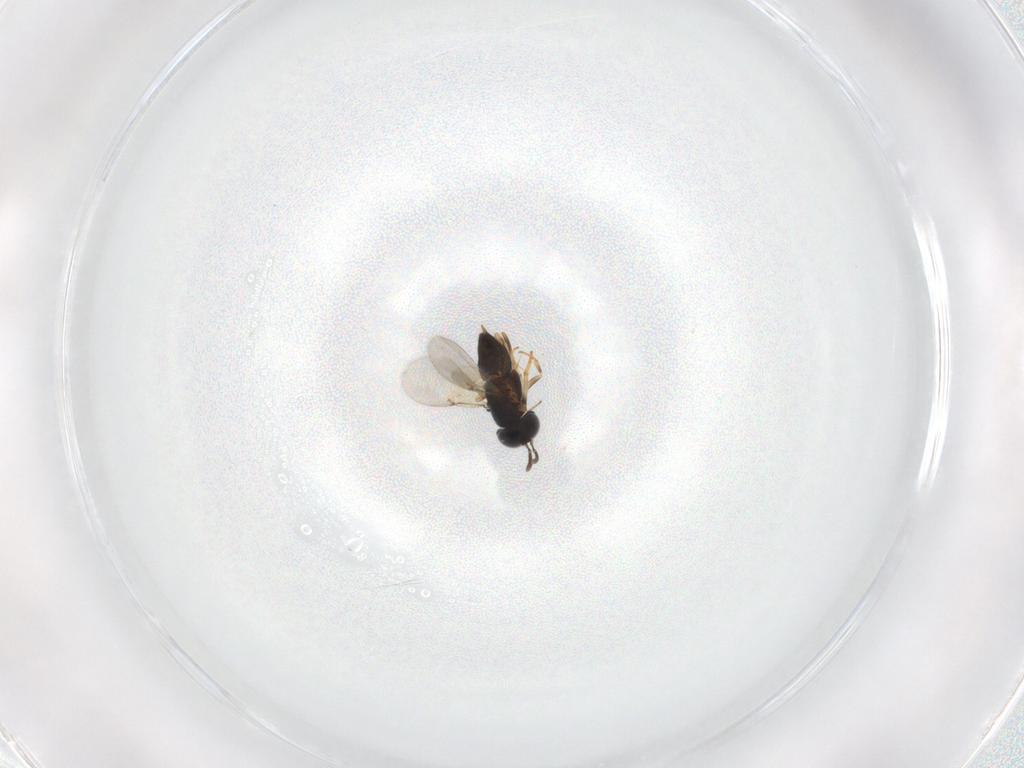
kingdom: Animalia
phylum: Arthropoda
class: Insecta
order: Hymenoptera
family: Encyrtidae
